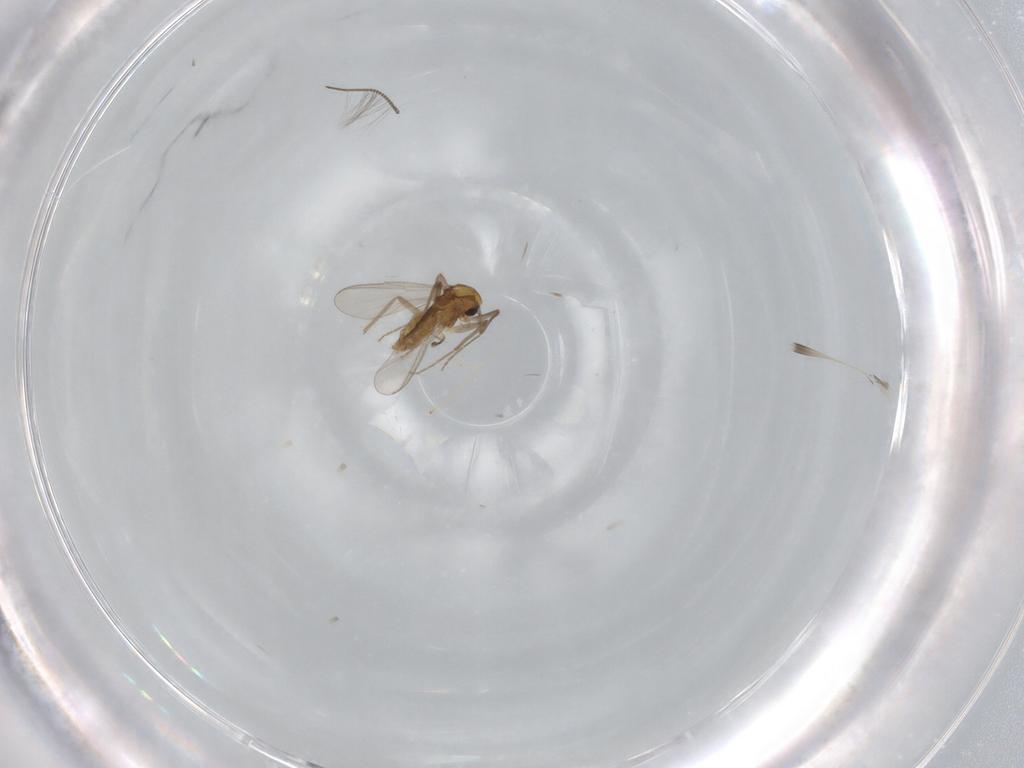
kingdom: Animalia
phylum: Arthropoda
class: Insecta
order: Diptera
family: Chironomidae
